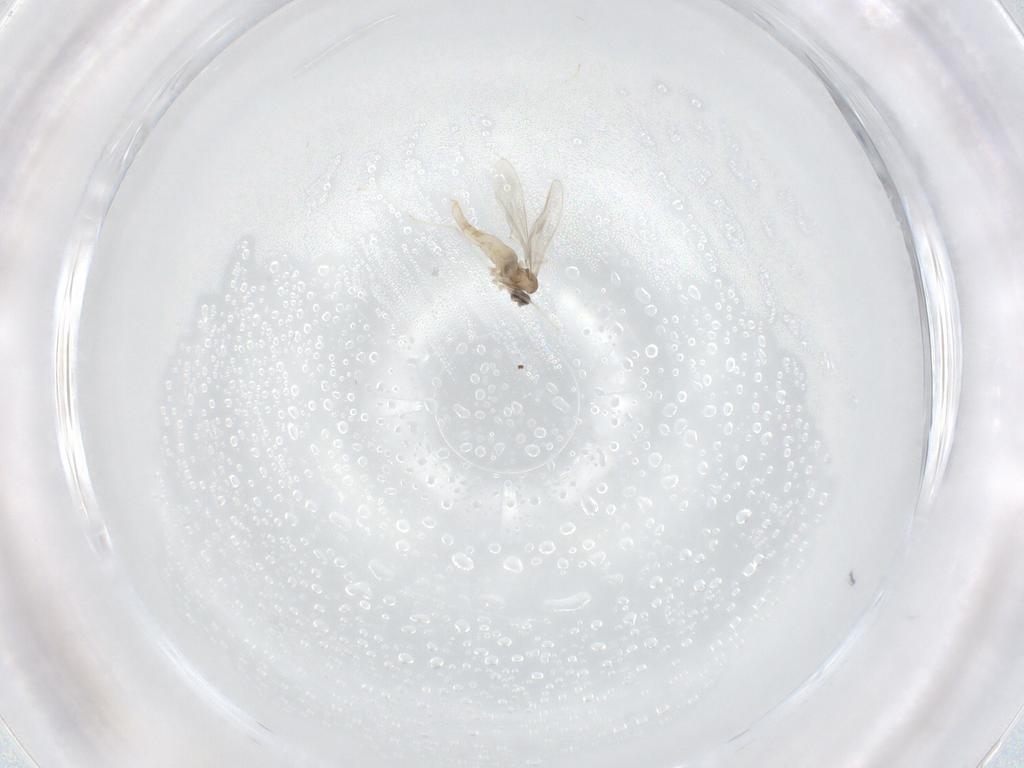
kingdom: Animalia
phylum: Arthropoda
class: Insecta
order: Diptera
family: Cecidomyiidae
